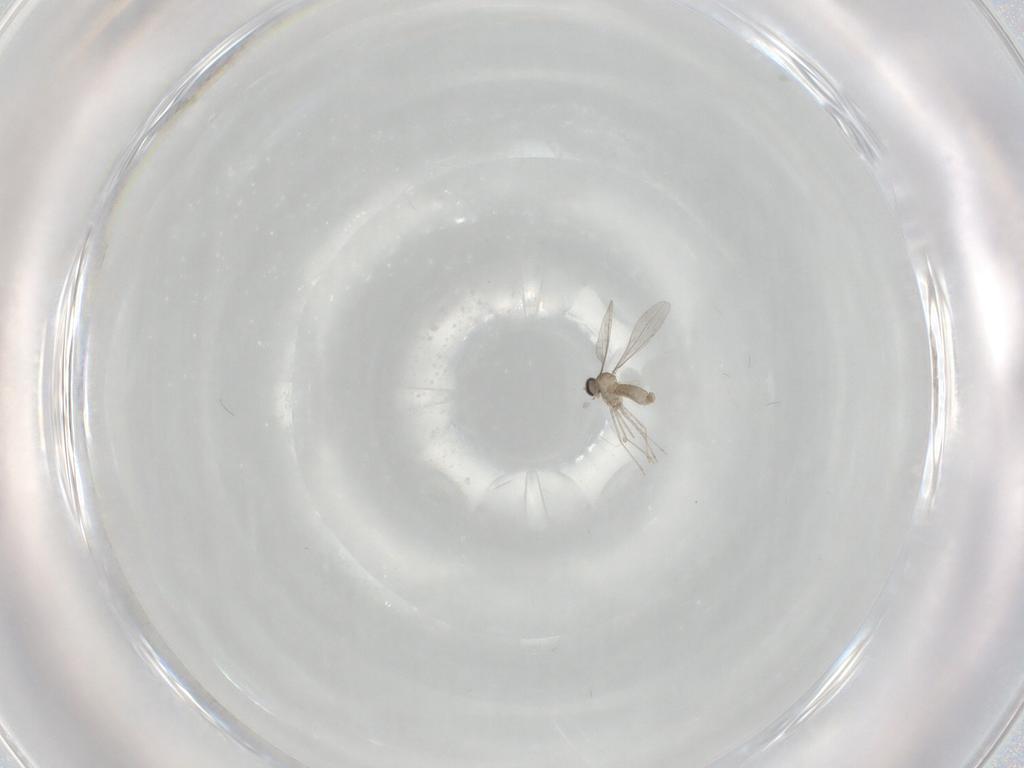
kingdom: Animalia
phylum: Arthropoda
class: Insecta
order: Diptera
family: Cecidomyiidae
